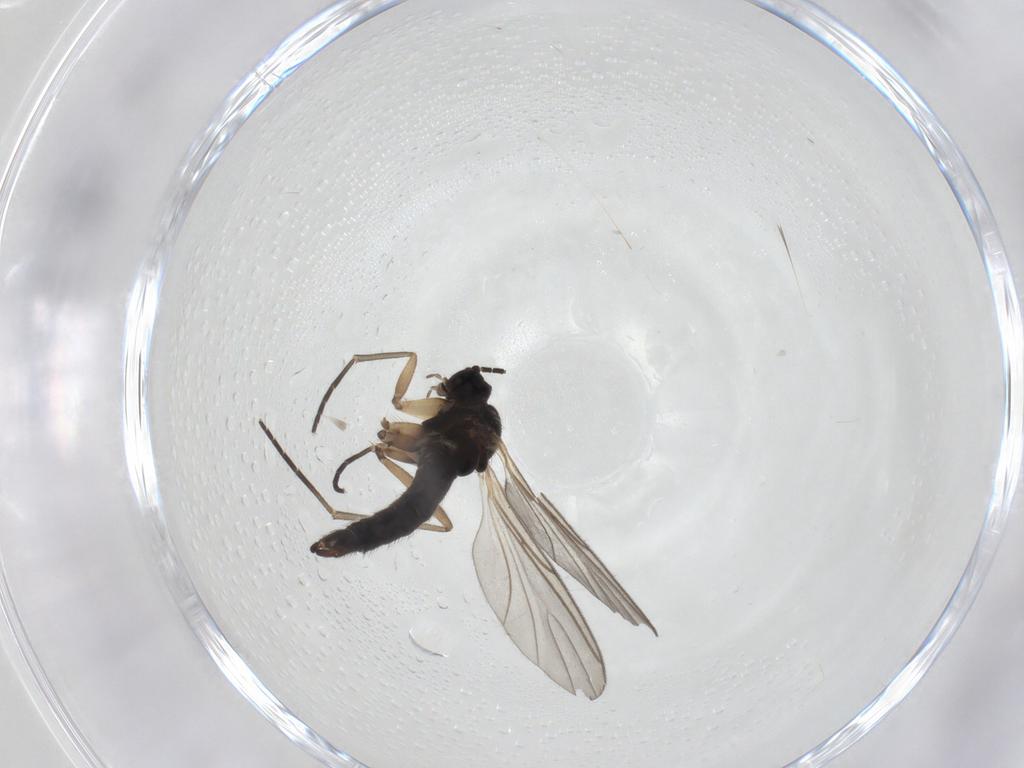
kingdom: Animalia
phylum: Arthropoda
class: Insecta
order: Diptera
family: Sciaridae
